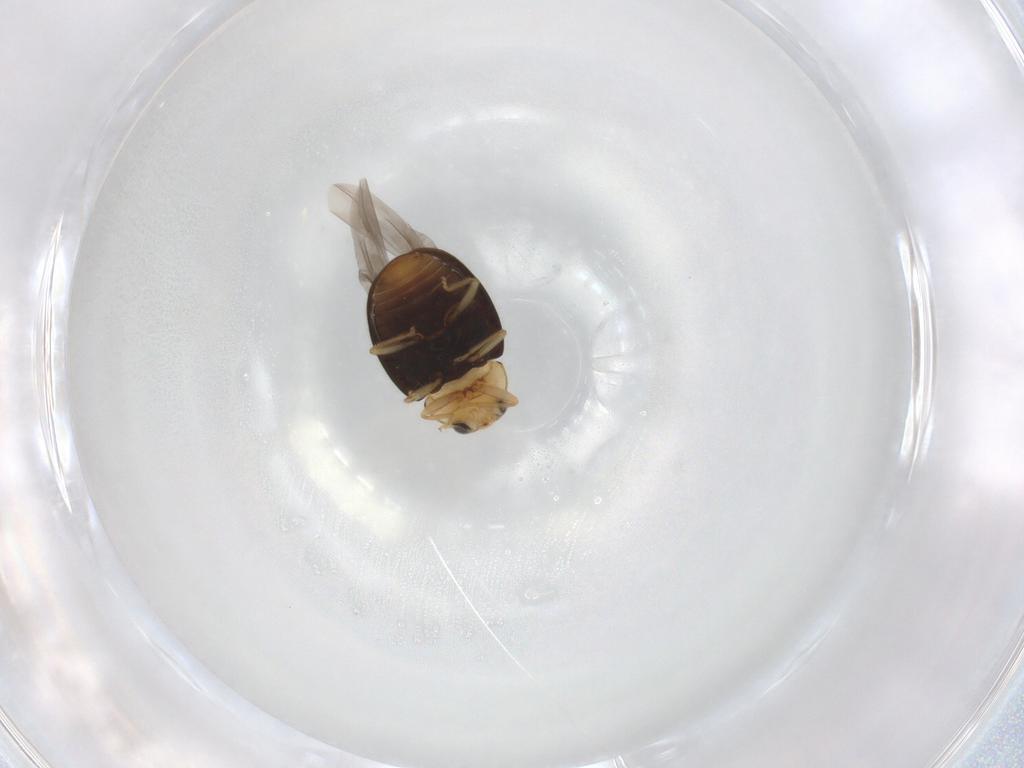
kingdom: Animalia
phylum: Arthropoda
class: Insecta
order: Coleoptera
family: Coccinellidae
